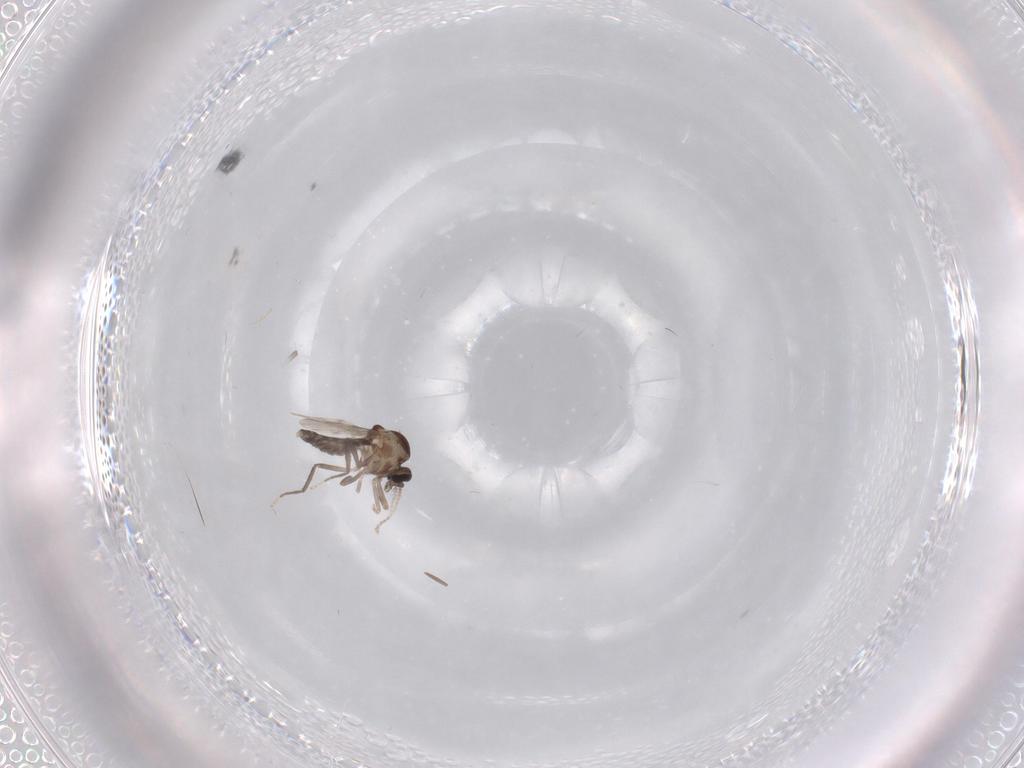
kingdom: Animalia
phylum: Arthropoda
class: Insecta
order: Diptera
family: Ceratopogonidae
